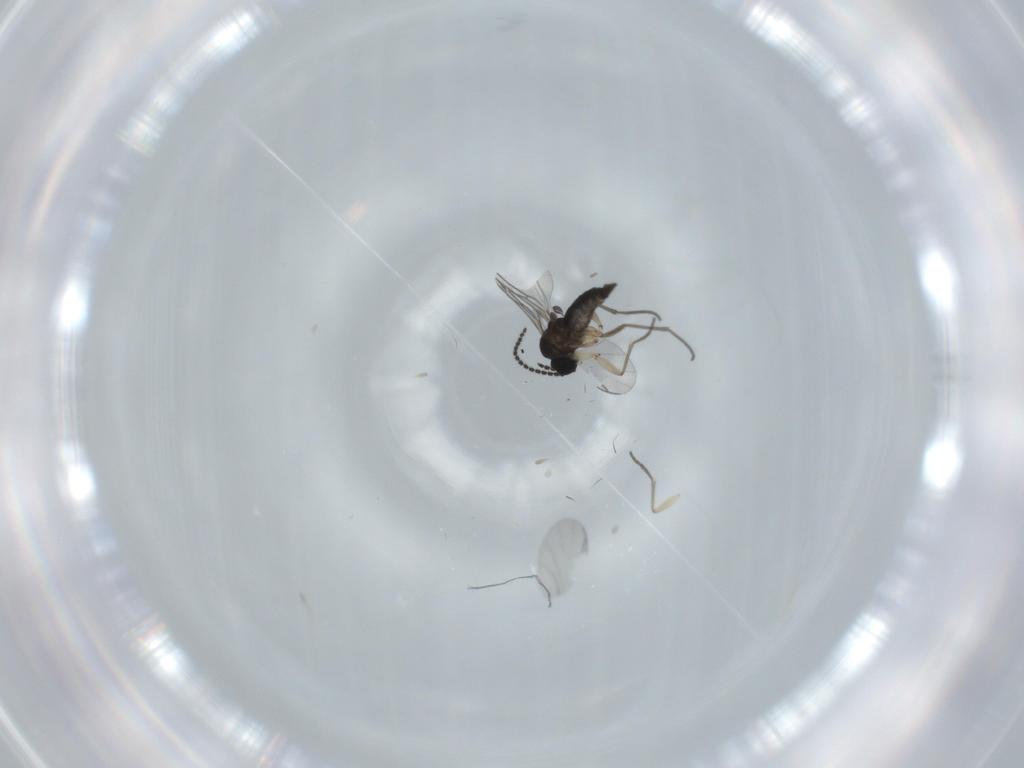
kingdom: Animalia
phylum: Arthropoda
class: Insecta
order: Diptera
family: Sciaridae
